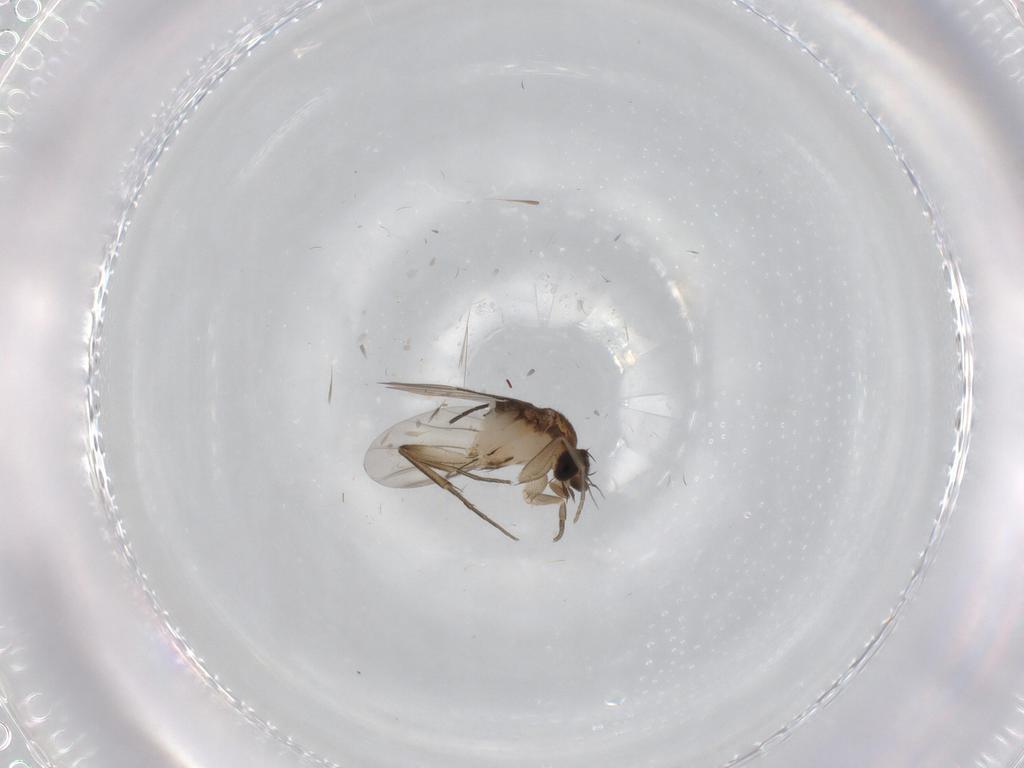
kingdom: Animalia
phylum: Arthropoda
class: Insecta
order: Diptera
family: Phoridae
